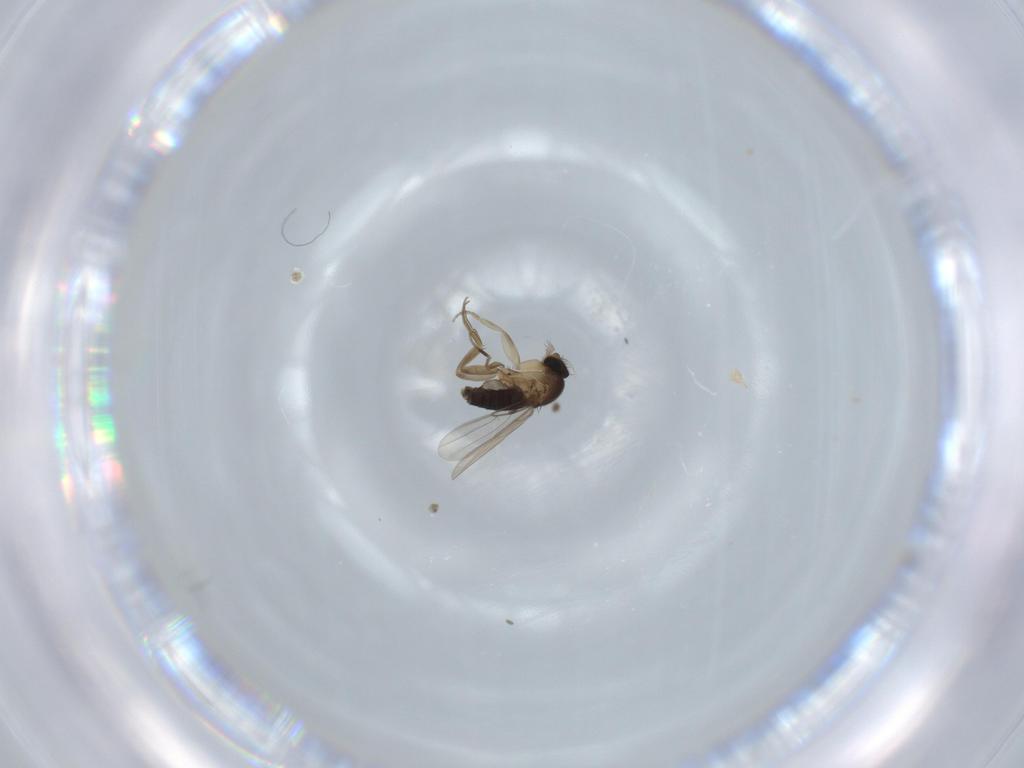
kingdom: Animalia
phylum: Arthropoda
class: Insecta
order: Diptera
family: Phoridae
